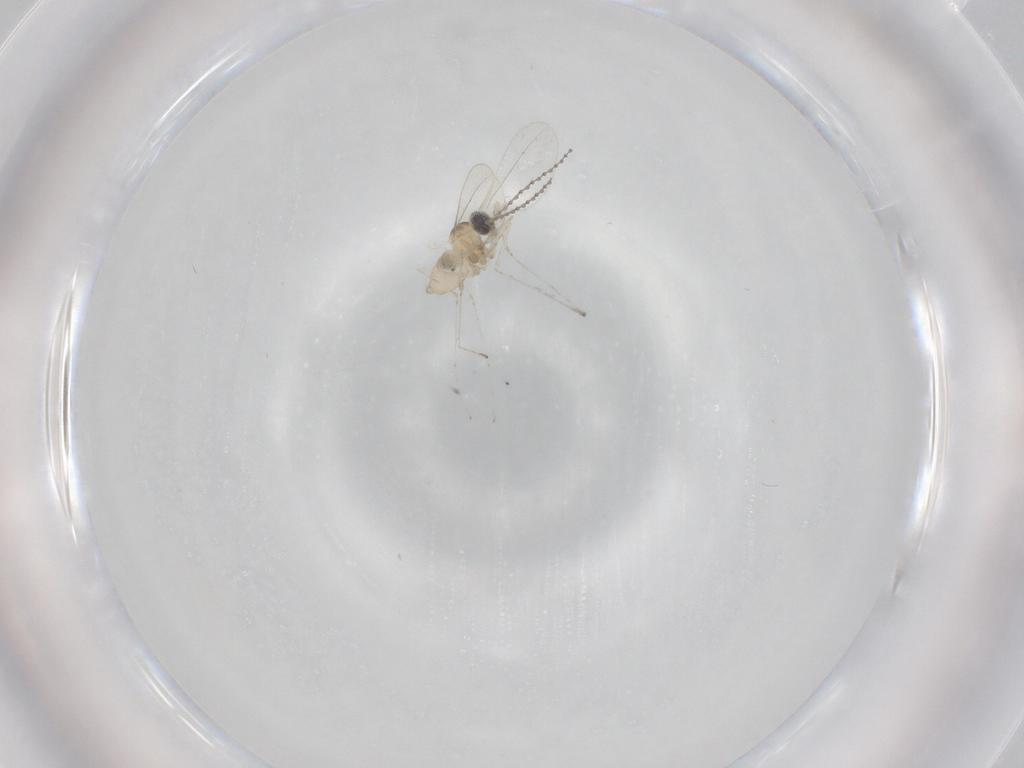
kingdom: Animalia
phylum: Arthropoda
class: Insecta
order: Diptera
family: Cecidomyiidae
